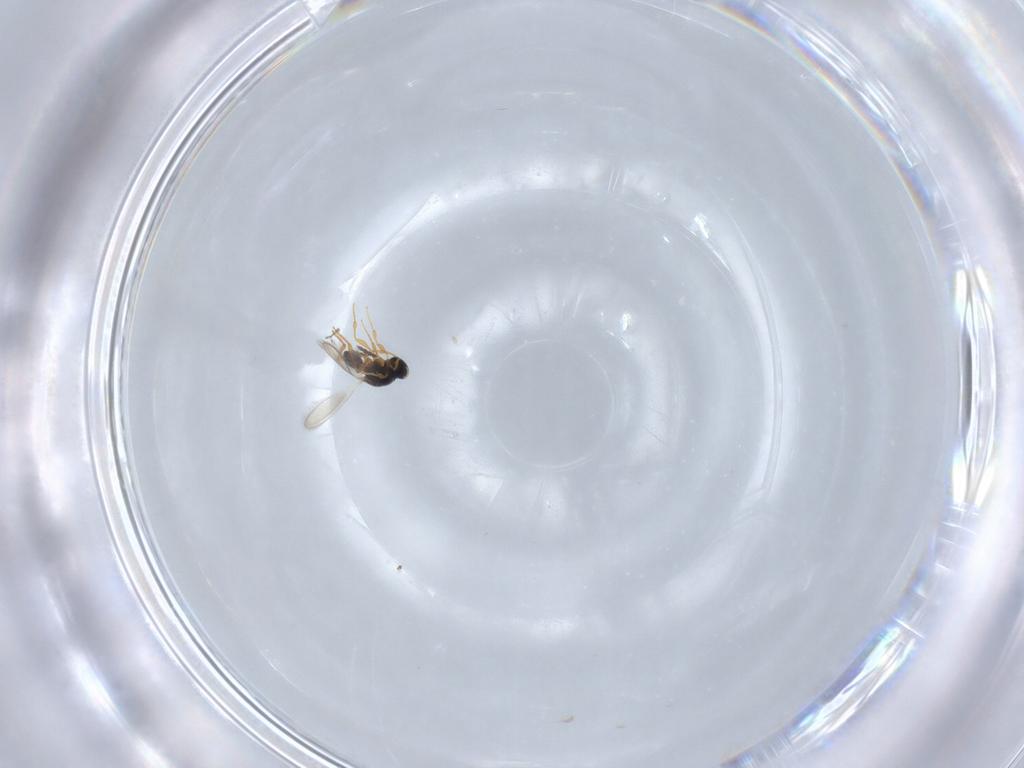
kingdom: Animalia
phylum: Arthropoda
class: Insecta
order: Hymenoptera
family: Platygastridae
